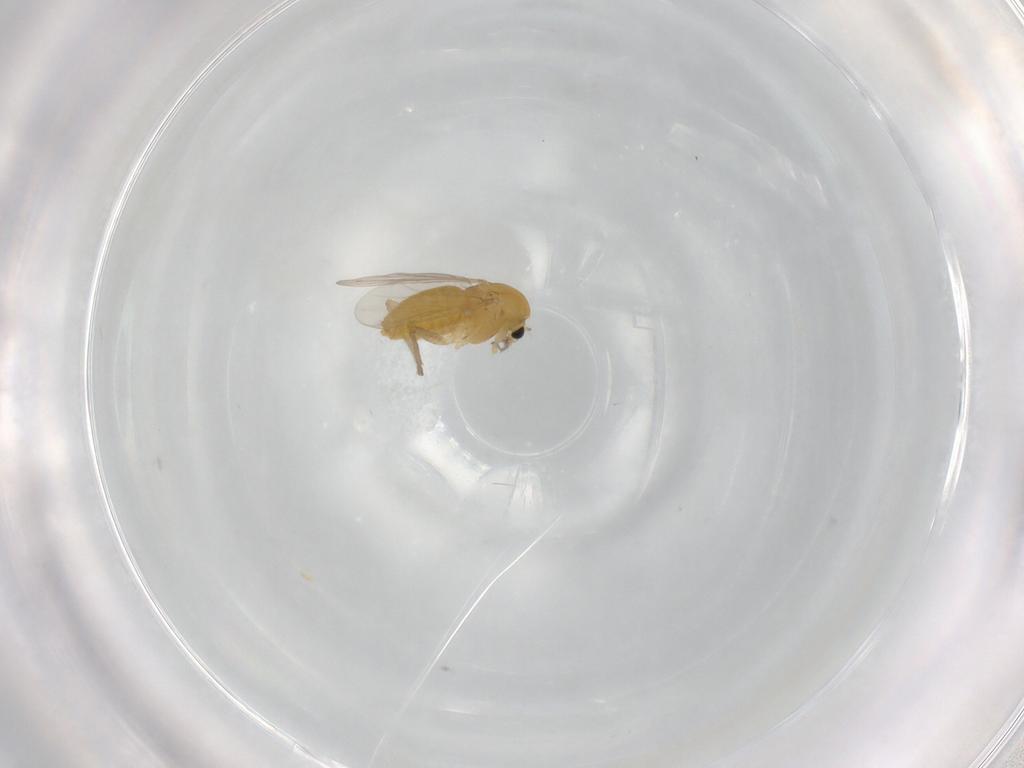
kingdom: Animalia
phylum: Arthropoda
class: Insecta
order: Diptera
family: Chironomidae
